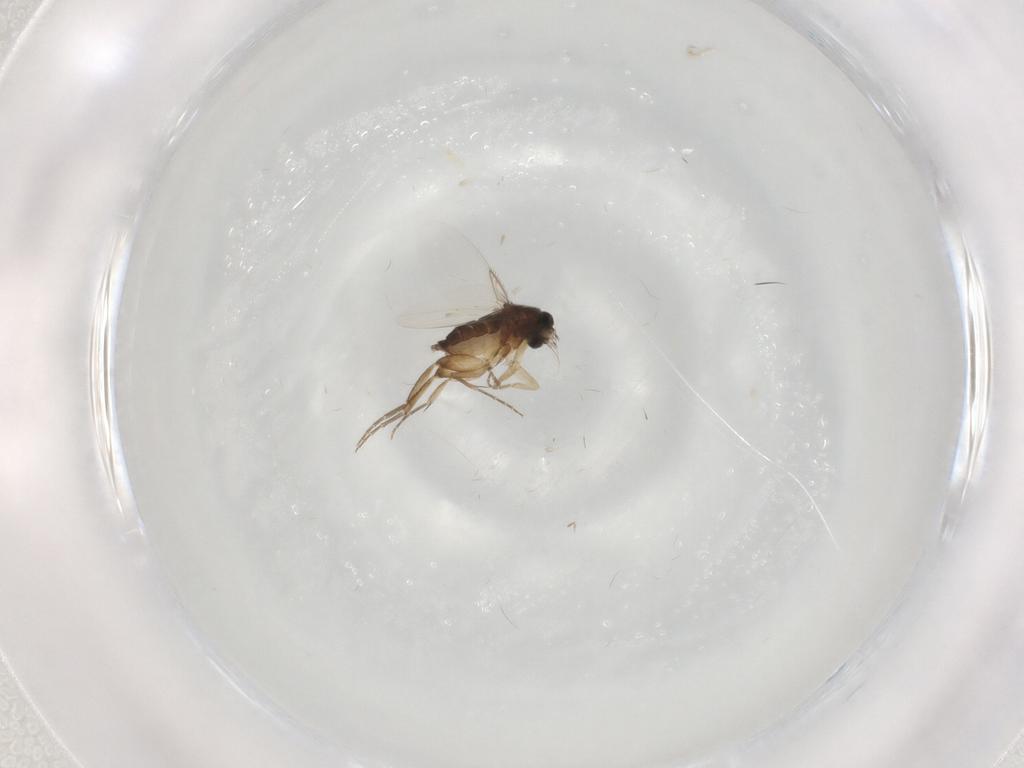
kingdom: Animalia
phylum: Arthropoda
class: Insecta
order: Diptera
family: Phoridae
